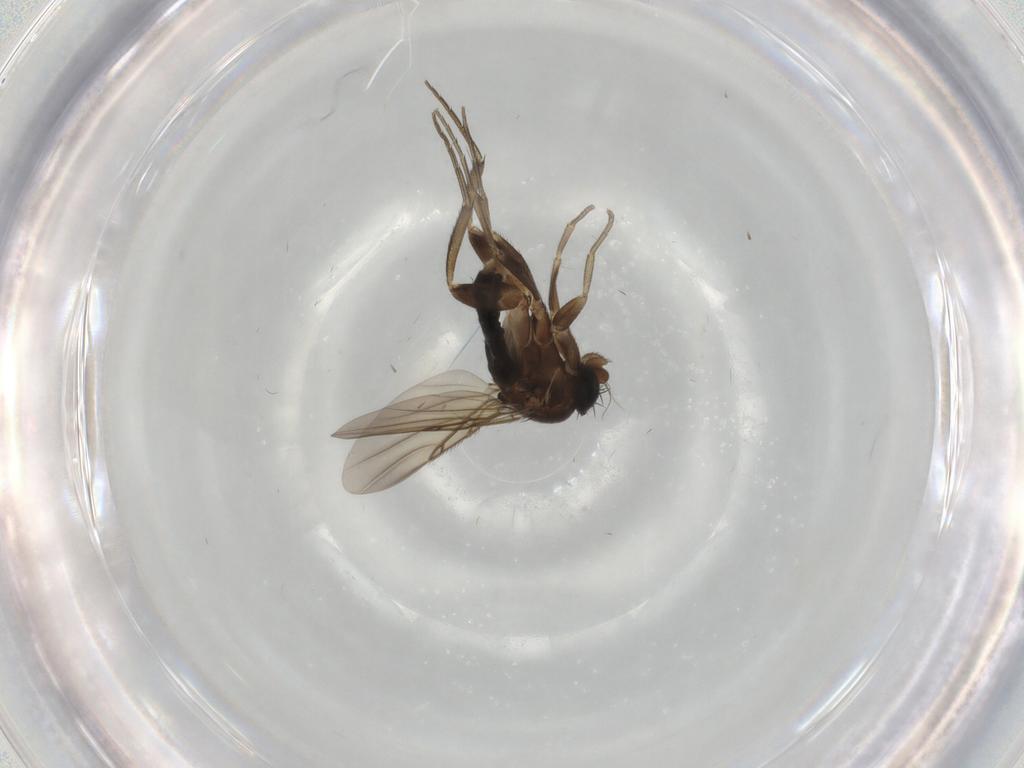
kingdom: Animalia
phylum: Arthropoda
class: Insecta
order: Diptera
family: Phoridae
